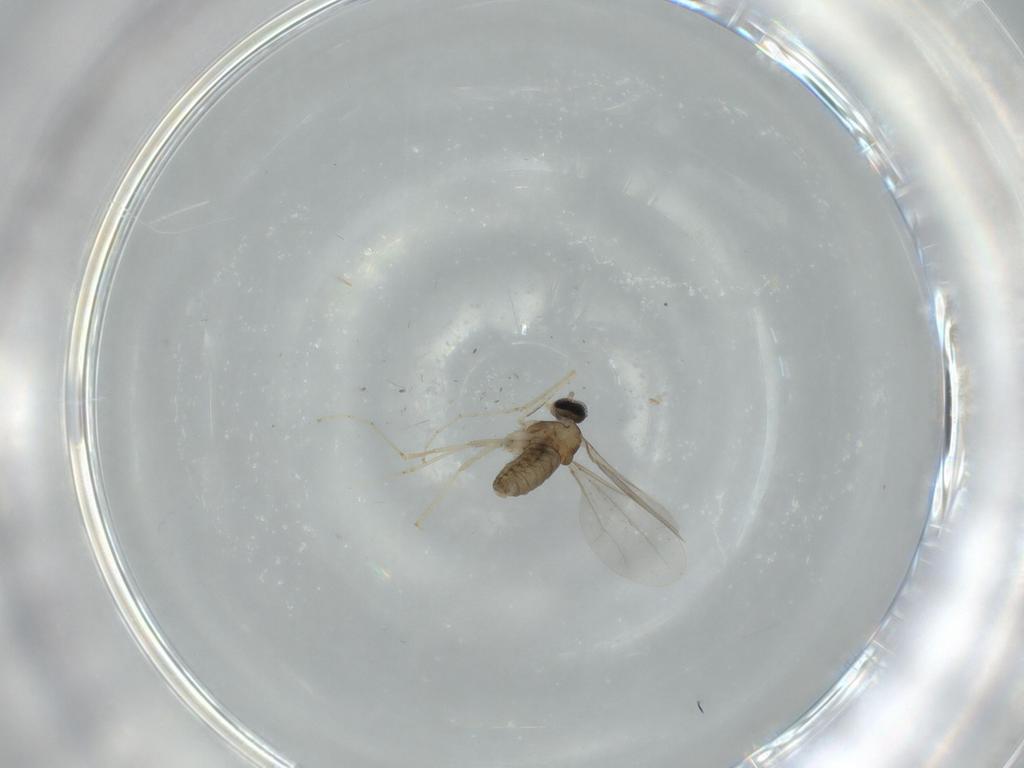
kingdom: Animalia
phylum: Arthropoda
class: Insecta
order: Diptera
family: Cecidomyiidae
